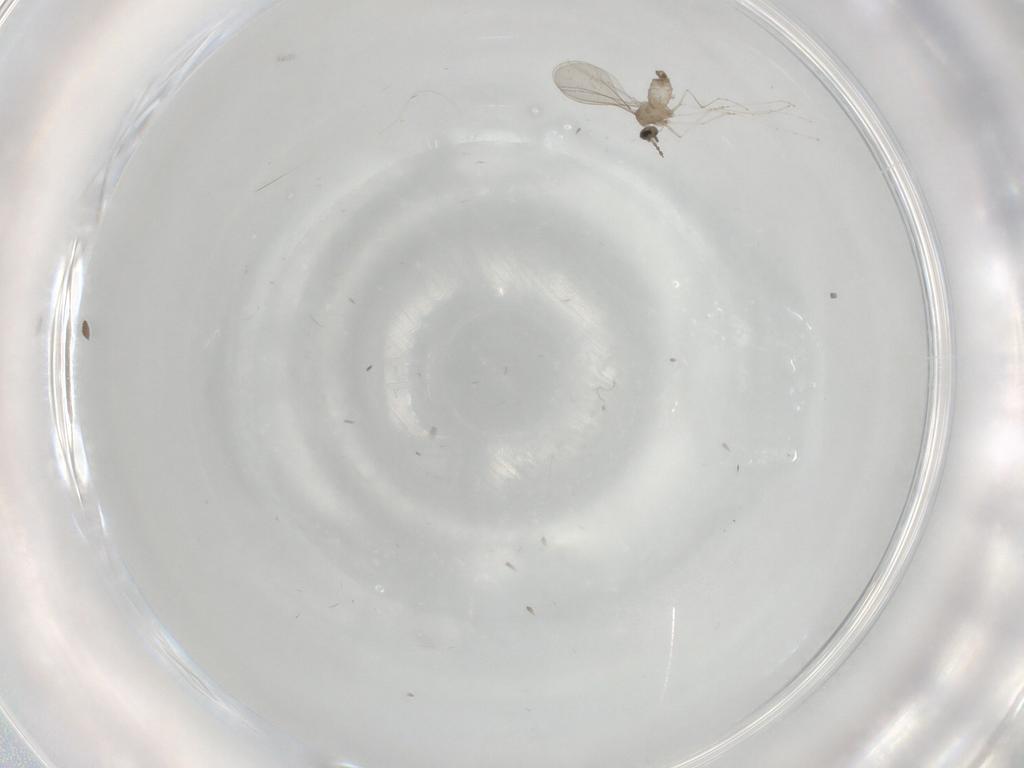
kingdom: Animalia
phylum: Arthropoda
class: Insecta
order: Diptera
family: Cecidomyiidae
